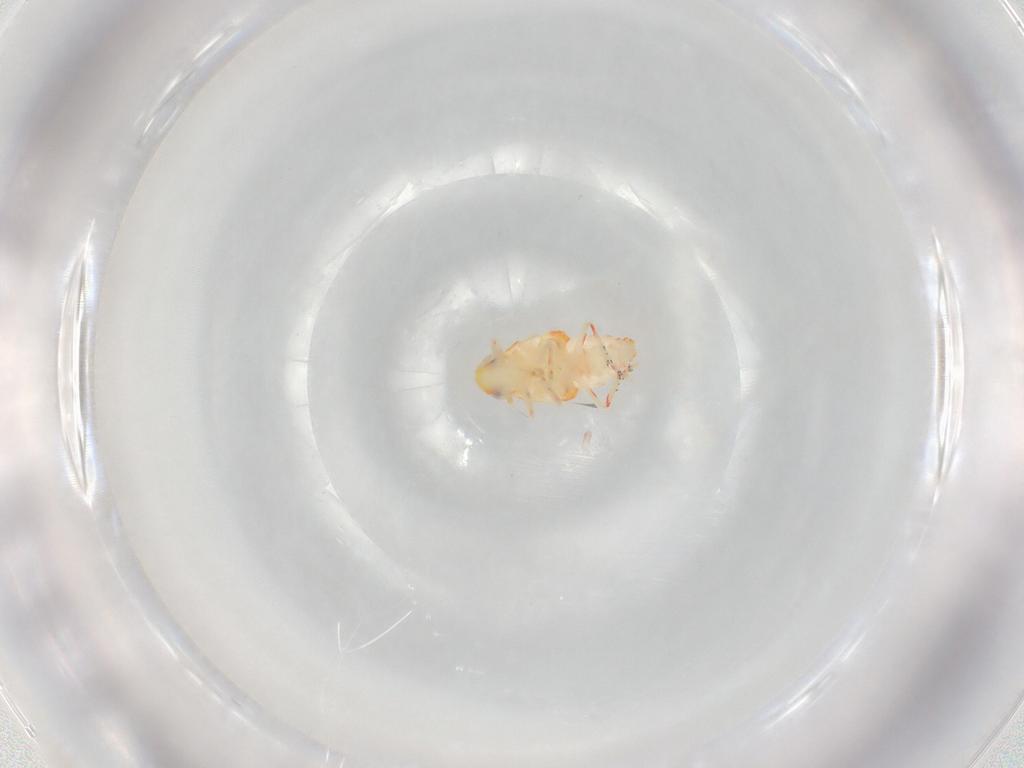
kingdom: Animalia
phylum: Arthropoda
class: Insecta
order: Hemiptera
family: Tropiduchidae
